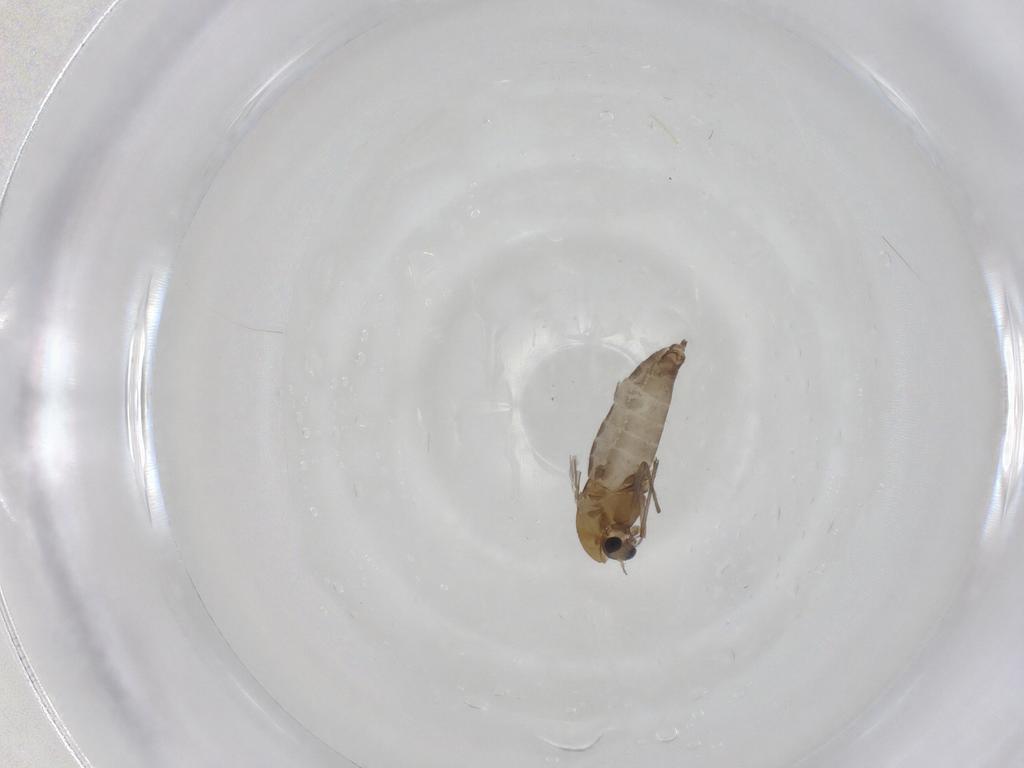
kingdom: Animalia
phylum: Arthropoda
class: Insecta
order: Diptera
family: Chironomidae
